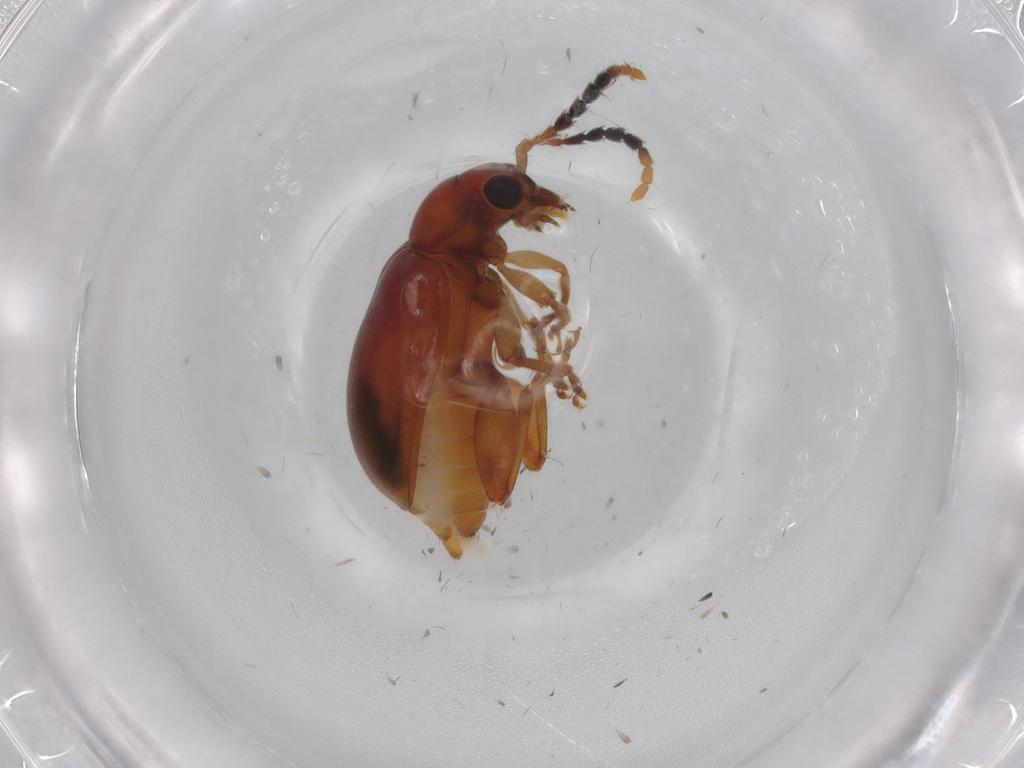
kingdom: Animalia
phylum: Arthropoda
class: Insecta
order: Coleoptera
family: Chrysomelidae
